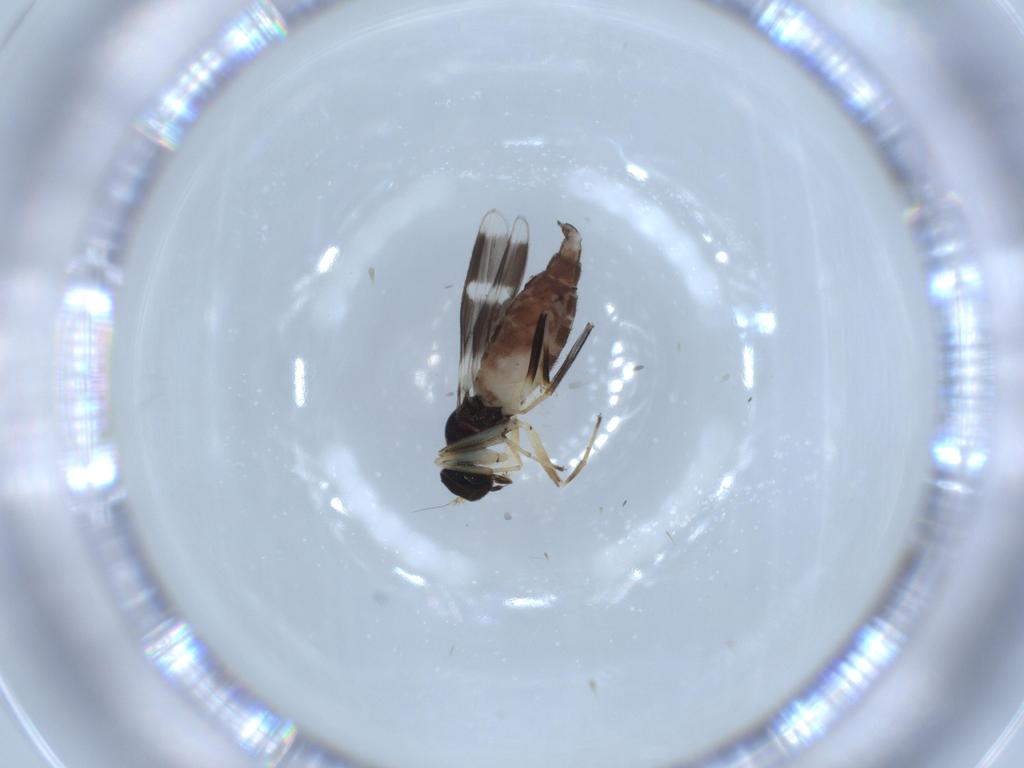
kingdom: Animalia
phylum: Arthropoda
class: Insecta
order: Diptera
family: Hybotidae
